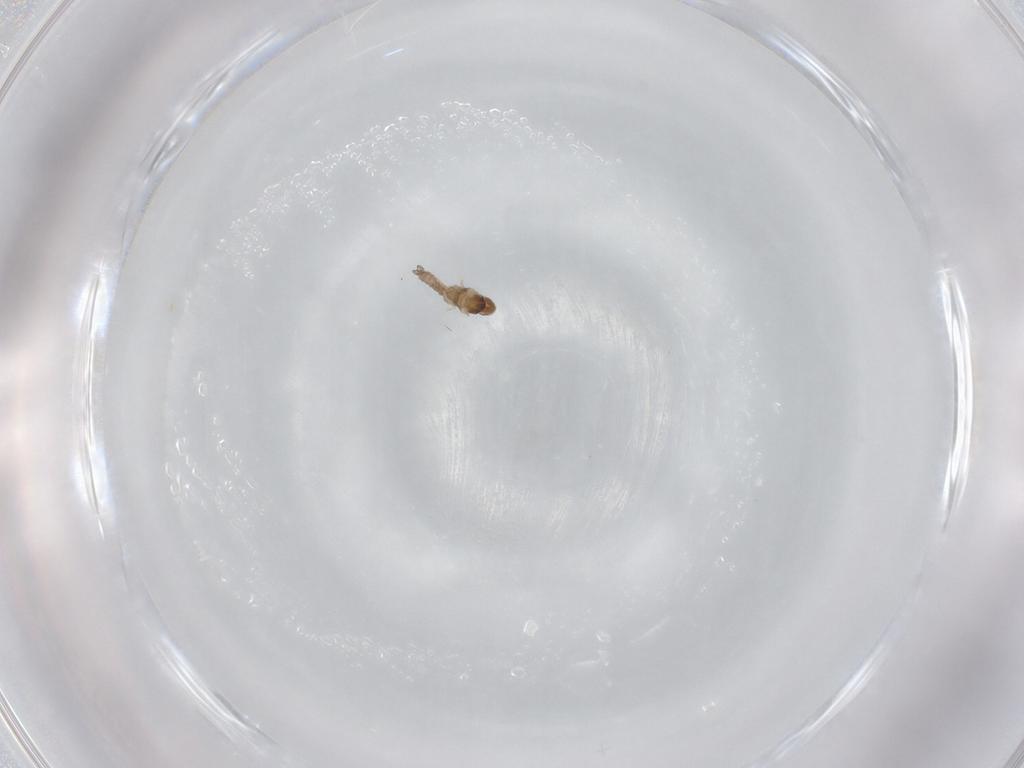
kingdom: Animalia
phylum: Arthropoda
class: Insecta
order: Diptera
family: Cecidomyiidae
